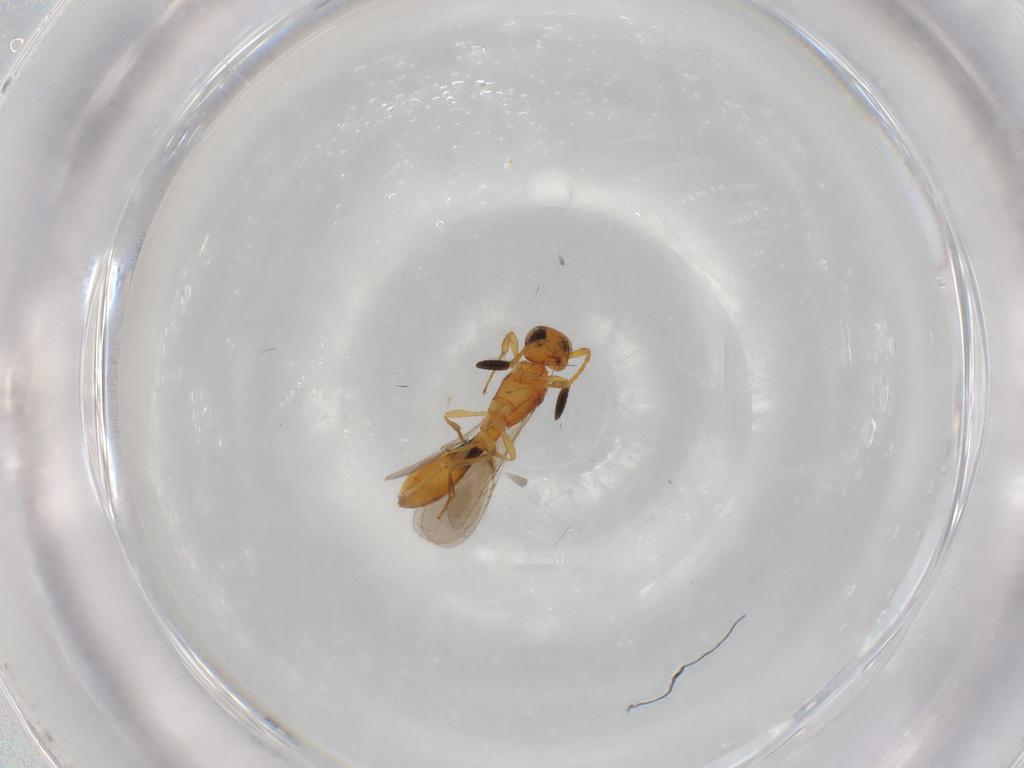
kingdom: Animalia
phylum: Arthropoda
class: Insecta
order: Hymenoptera
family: Scelionidae
